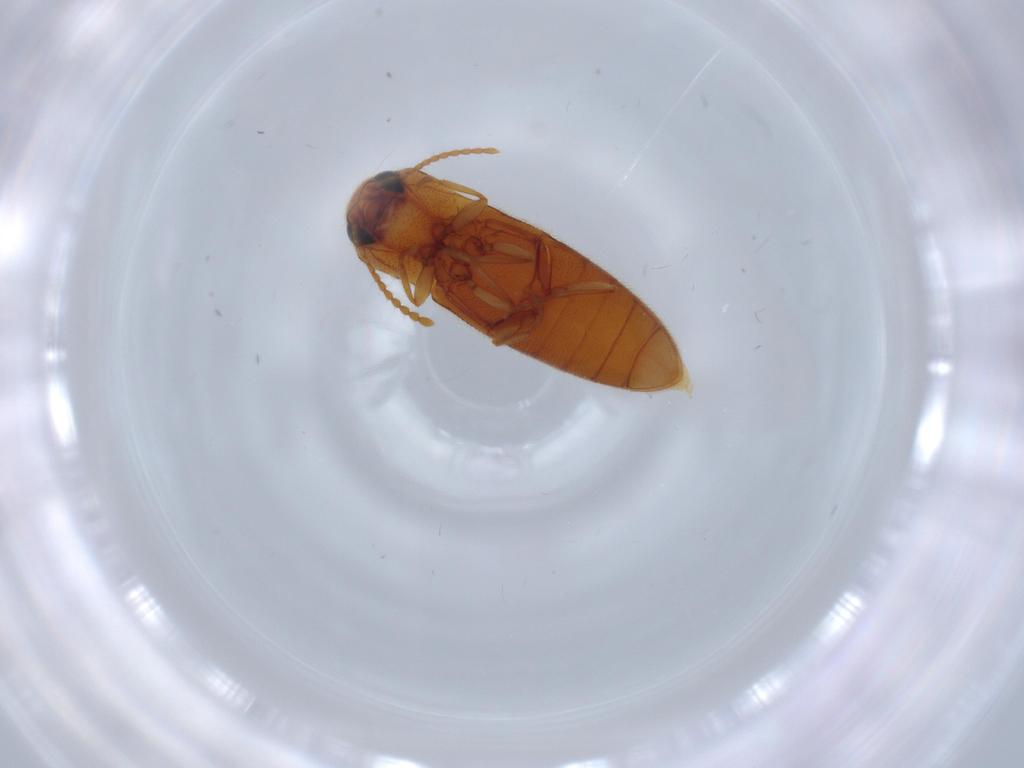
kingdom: Animalia
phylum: Arthropoda
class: Insecta
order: Coleoptera
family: Elateridae
